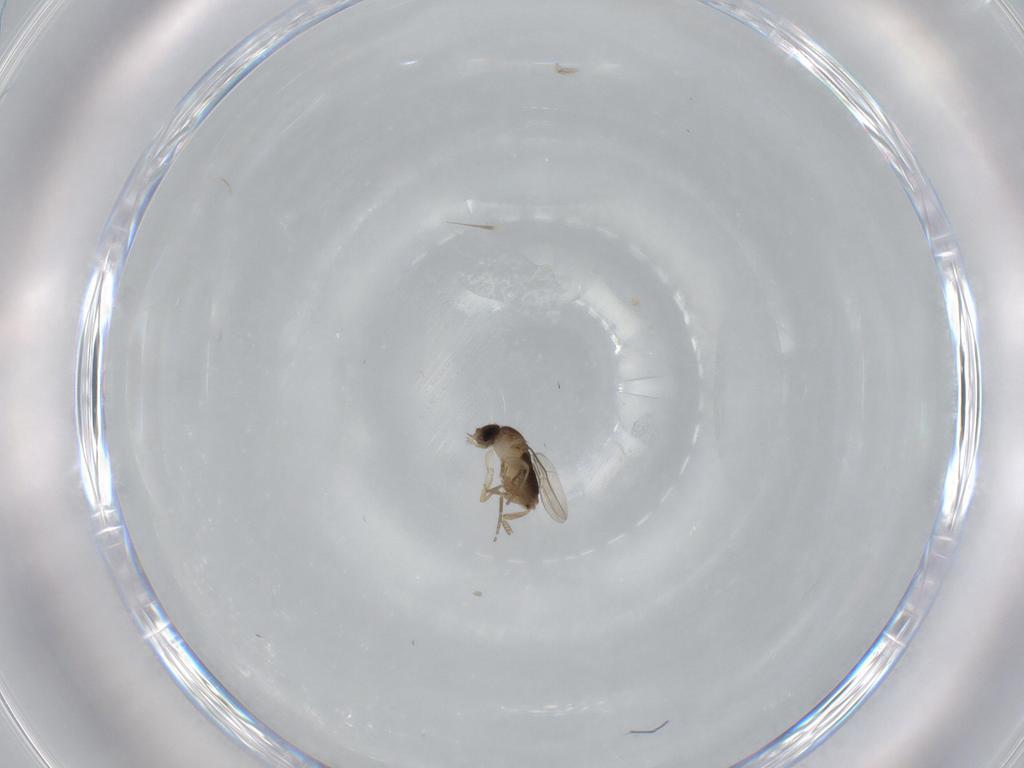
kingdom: Animalia
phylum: Arthropoda
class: Insecta
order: Diptera
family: Phoridae
